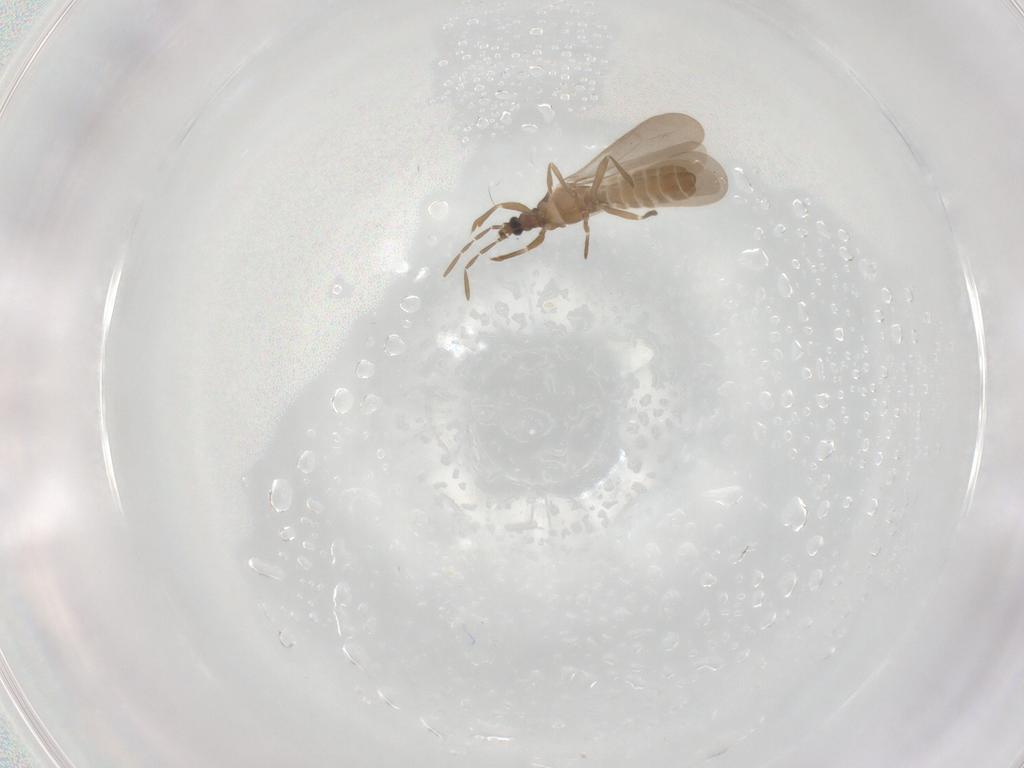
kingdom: Animalia
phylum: Arthropoda
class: Insecta
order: Hemiptera
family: Enicocephalidae
